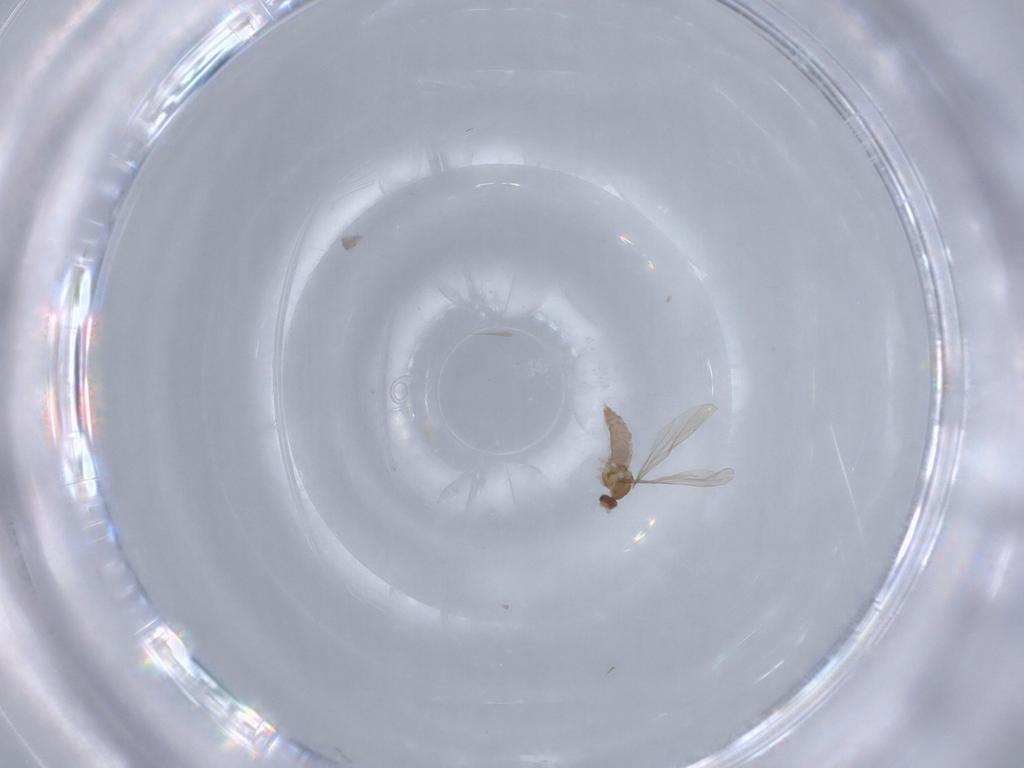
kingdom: Animalia
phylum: Arthropoda
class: Insecta
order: Diptera
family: Cecidomyiidae
